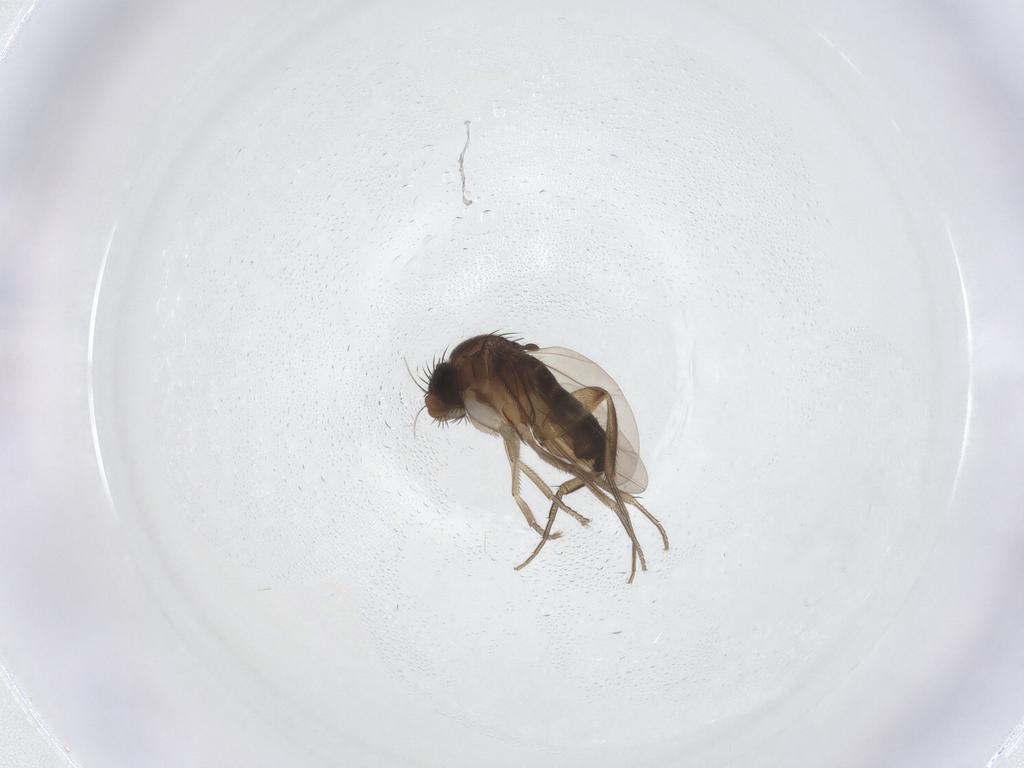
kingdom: Animalia
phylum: Arthropoda
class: Insecta
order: Diptera
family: Phoridae
